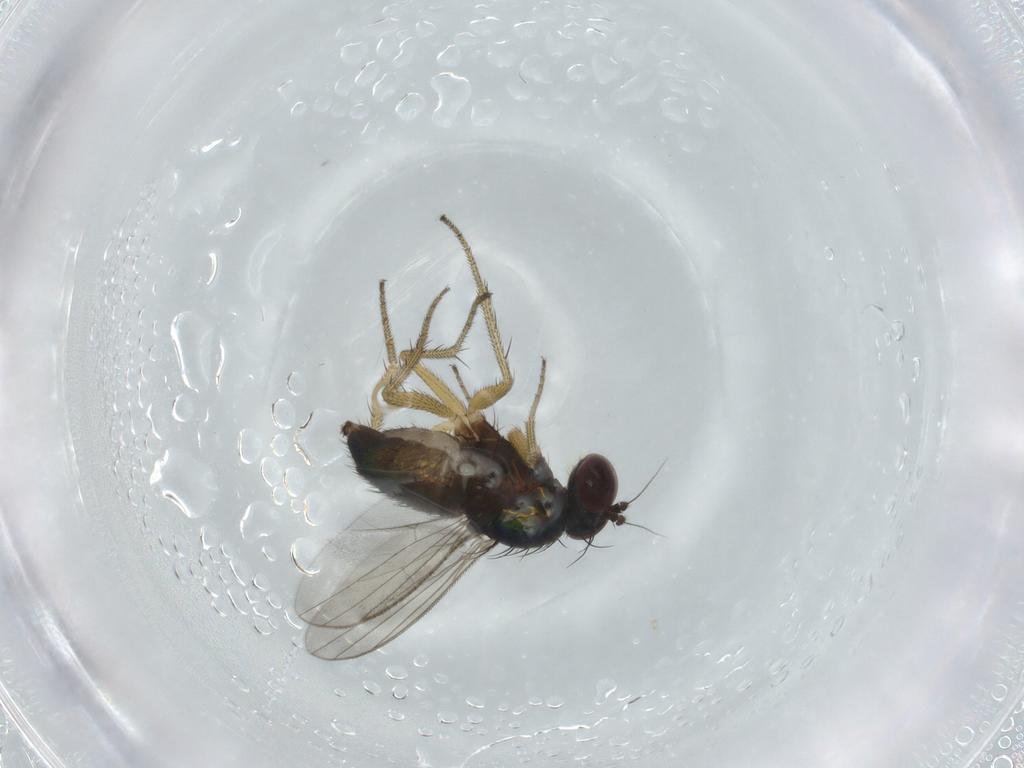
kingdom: Animalia
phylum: Arthropoda
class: Insecta
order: Diptera
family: Dolichopodidae
